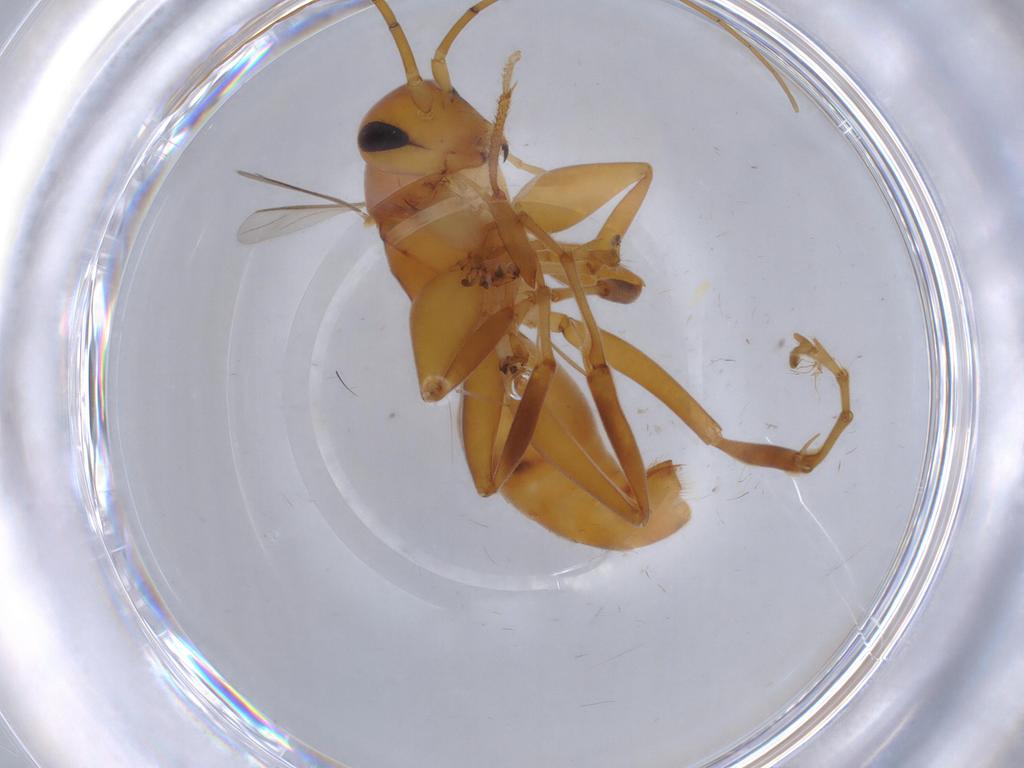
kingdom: Animalia
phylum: Arthropoda
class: Insecta
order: Hymenoptera
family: Rhopalosomatidae
